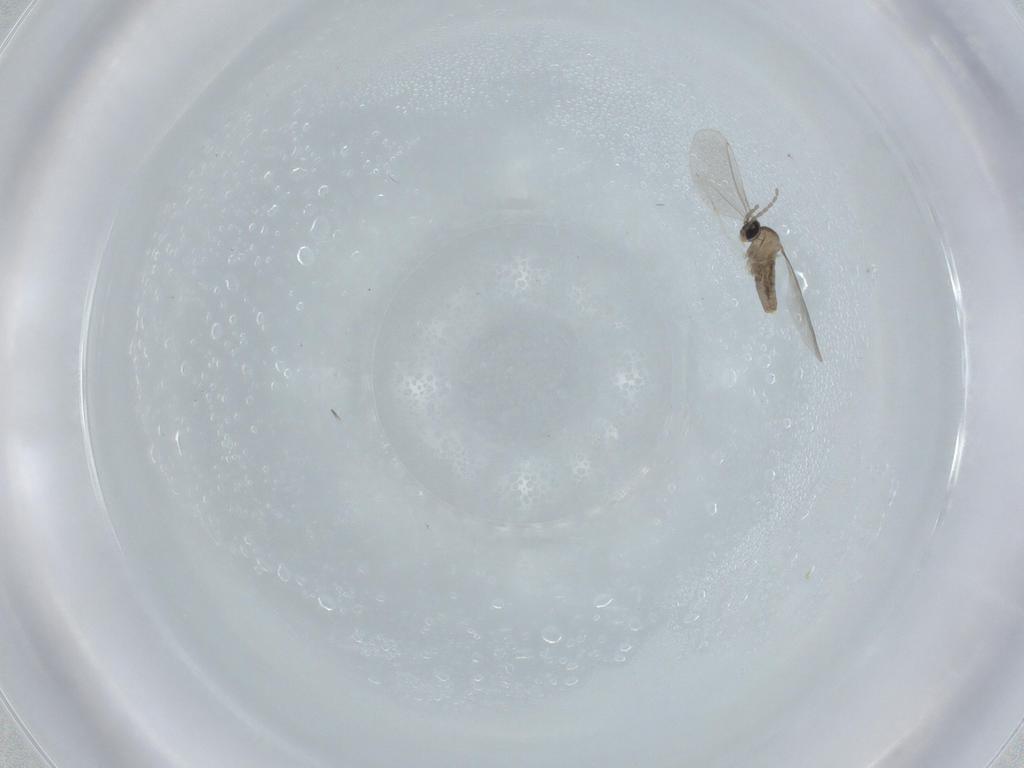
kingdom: Animalia
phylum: Arthropoda
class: Insecta
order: Diptera
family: Cecidomyiidae
